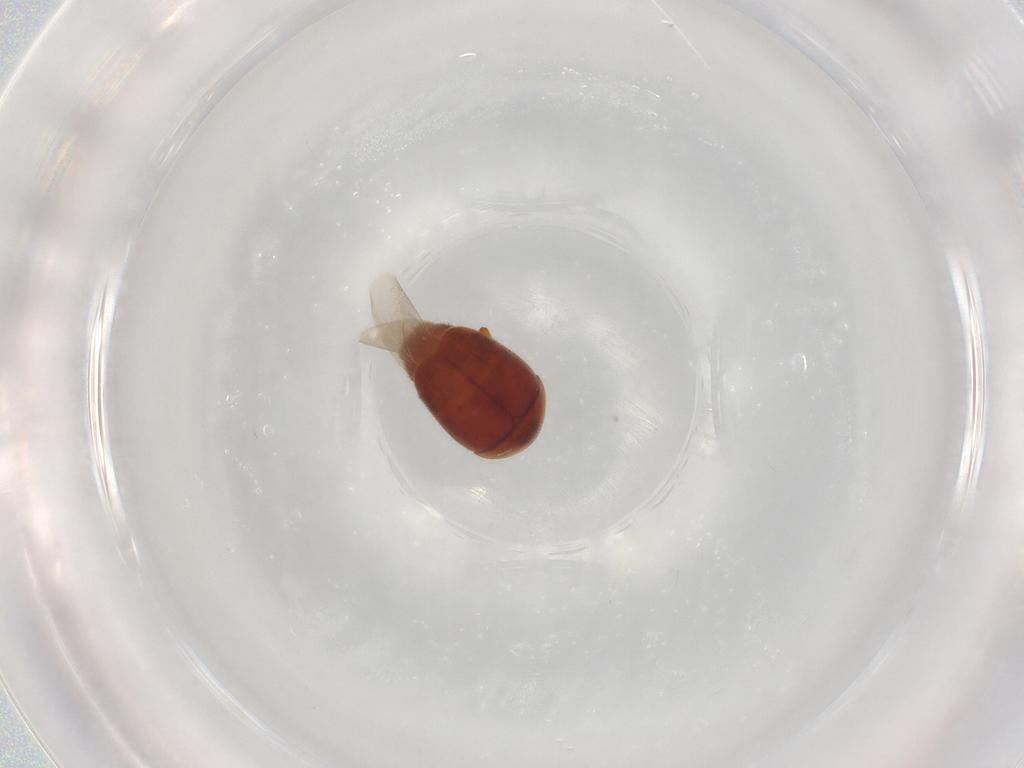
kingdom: Animalia
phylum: Arthropoda
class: Insecta
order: Coleoptera
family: Corylophidae
